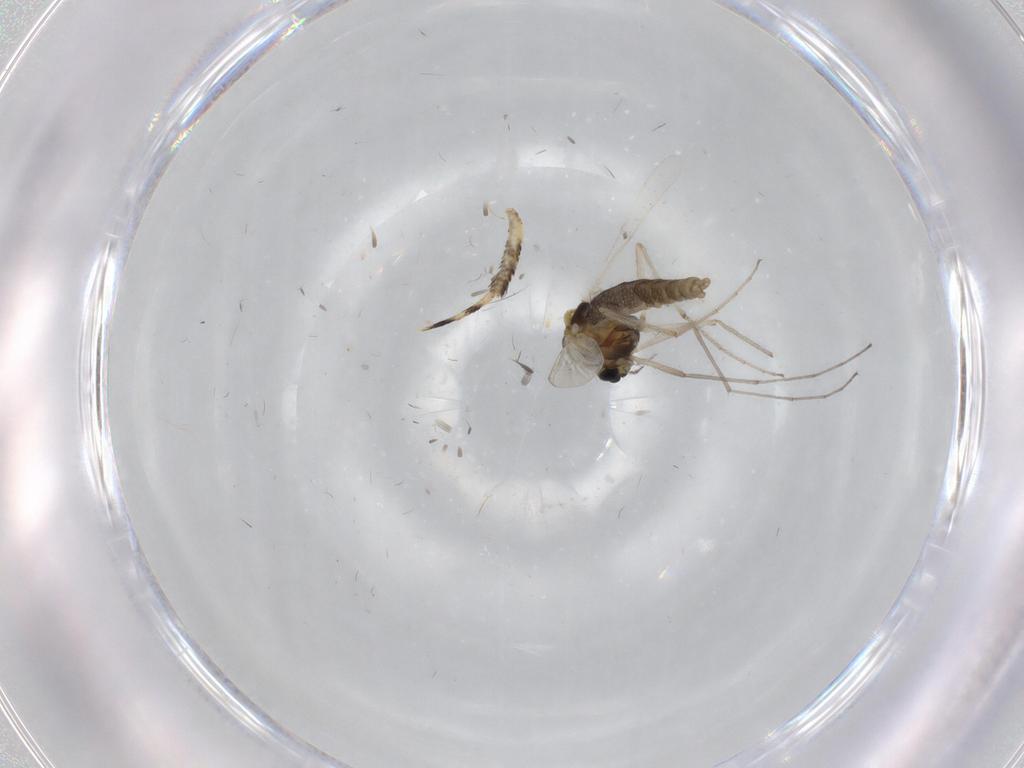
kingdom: Animalia
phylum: Arthropoda
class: Insecta
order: Diptera
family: Chironomidae
